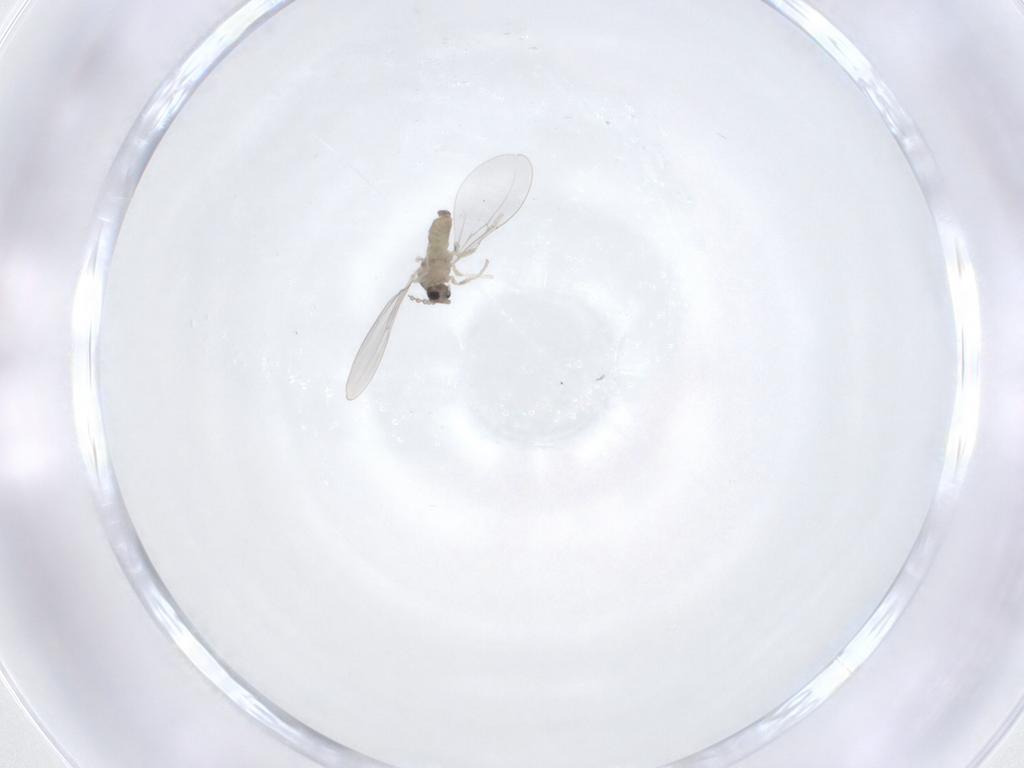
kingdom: Animalia
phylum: Arthropoda
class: Insecta
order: Diptera
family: Cecidomyiidae
